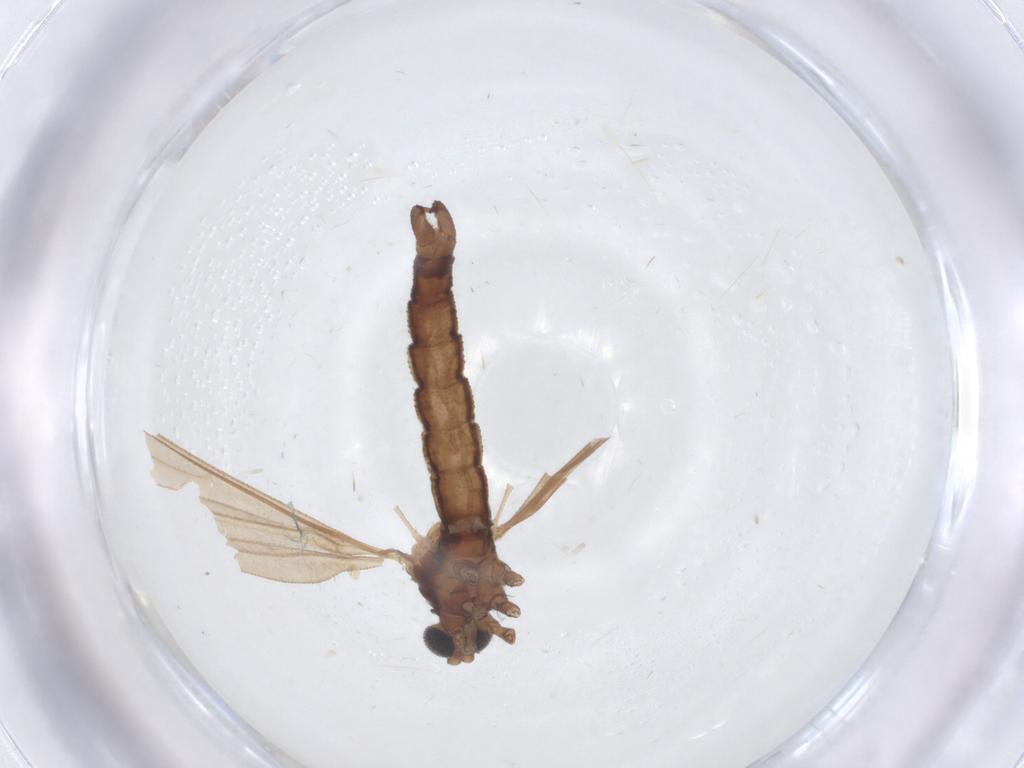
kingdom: Animalia
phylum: Arthropoda
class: Insecta
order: Diptera
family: Limoniidae
